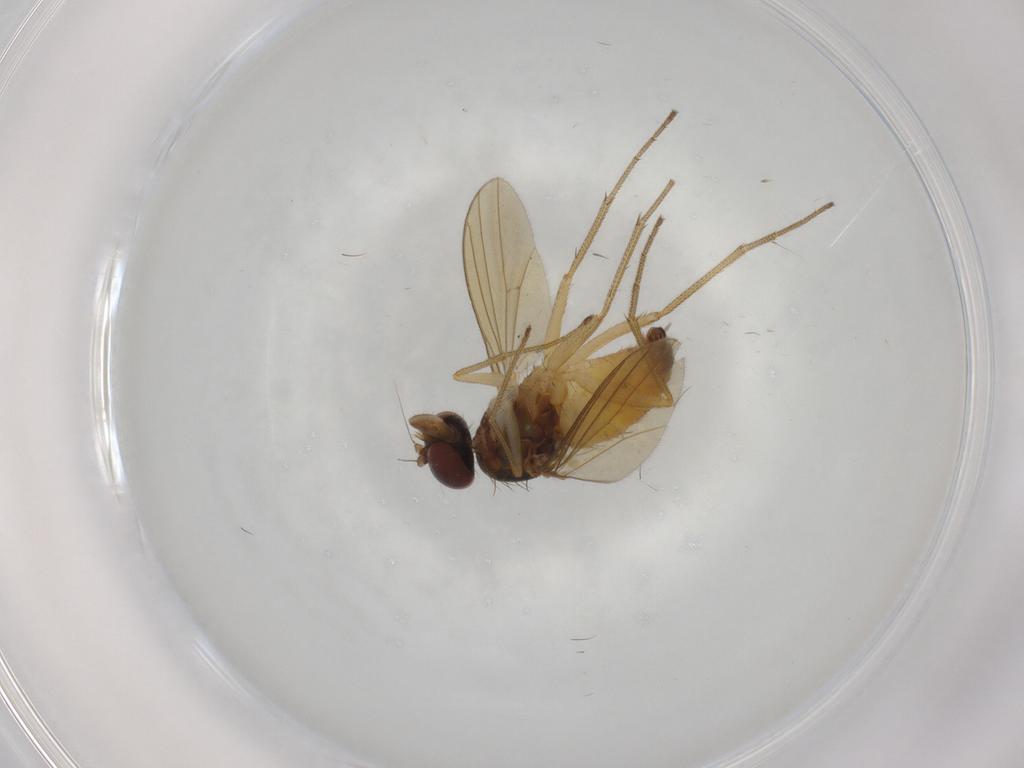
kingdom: Animalia
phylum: Arthropoda
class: Insecta
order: Diptera
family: Dolichopodidae
